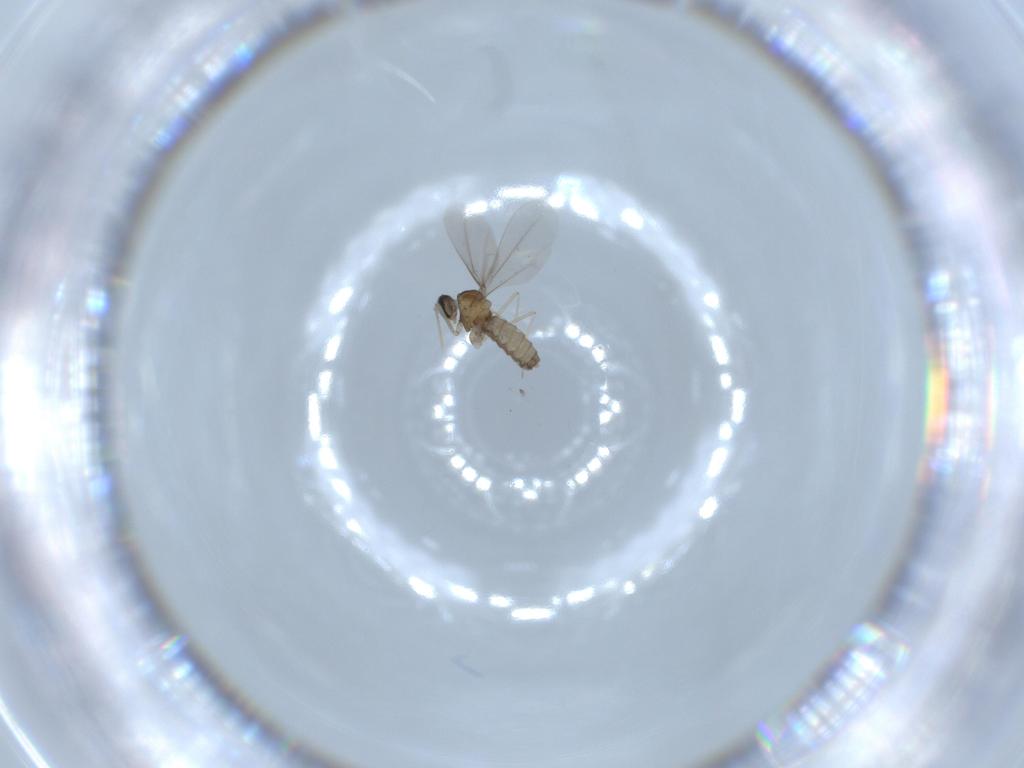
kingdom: Animalia
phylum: Arthropoda
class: Insecta
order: Diptera
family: Cecidomyiidae
